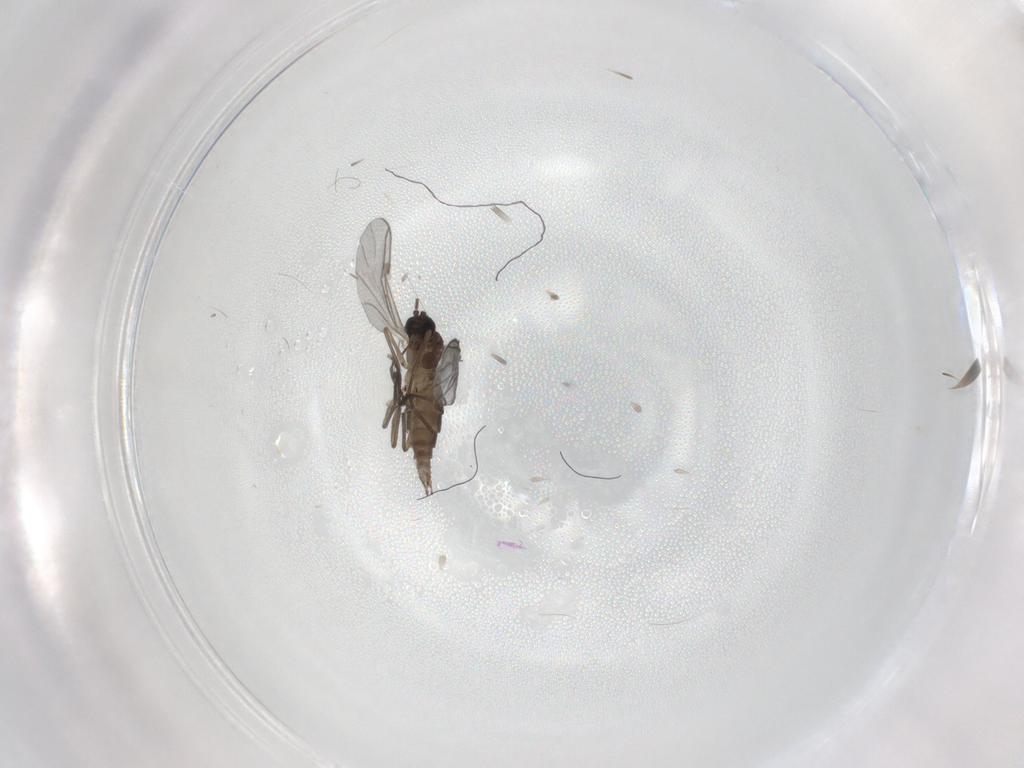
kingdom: Animalia
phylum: Arthropoda
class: Insecta
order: Diptera
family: Sciaridae
